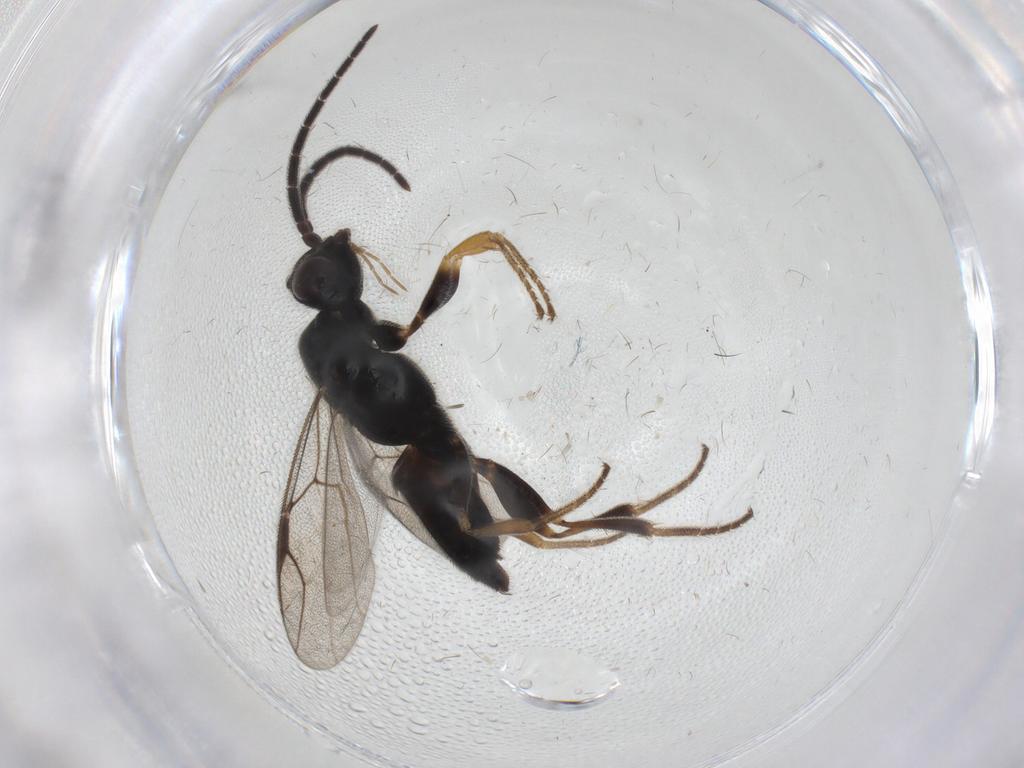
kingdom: Animalia
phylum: Arthropoda
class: Insecta
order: Hymenoptera
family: Dryinidae
